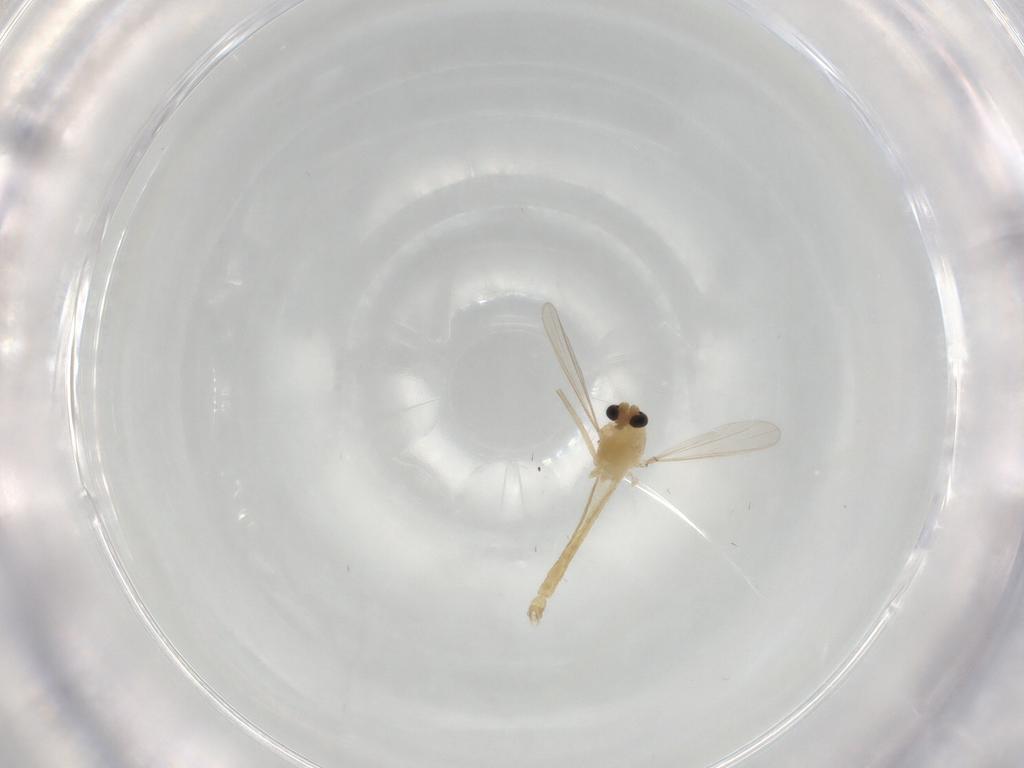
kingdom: Animalia
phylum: Arthropoda
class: Insecta
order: Diptera
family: Chironomidae
